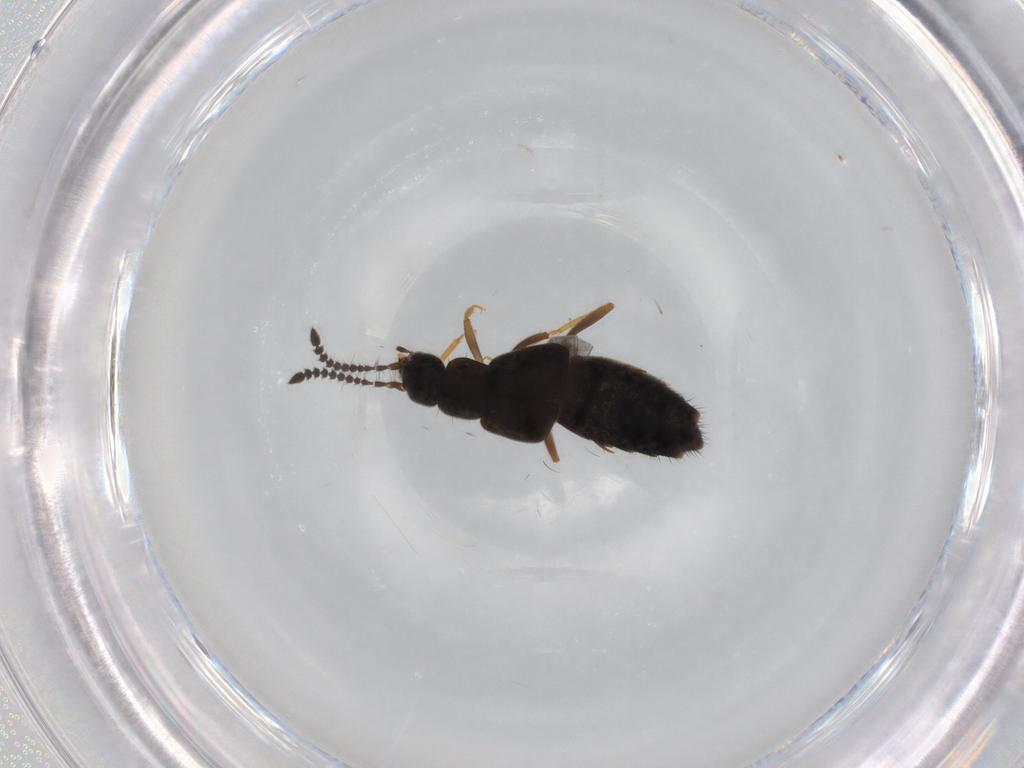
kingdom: Animalia
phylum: Arthropoda
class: Insecta
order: Coleoptera
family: Staphylinidae
